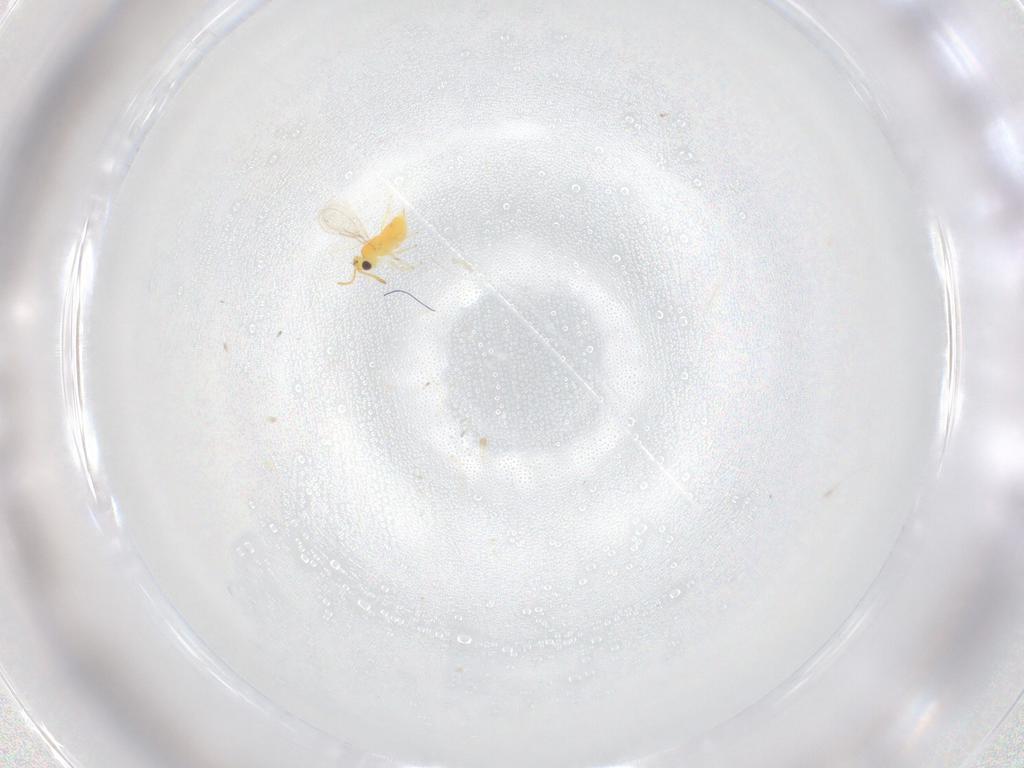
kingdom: Animalia
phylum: Arthropoda
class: Insecta
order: Hymenoptera
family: Aphelinidae
